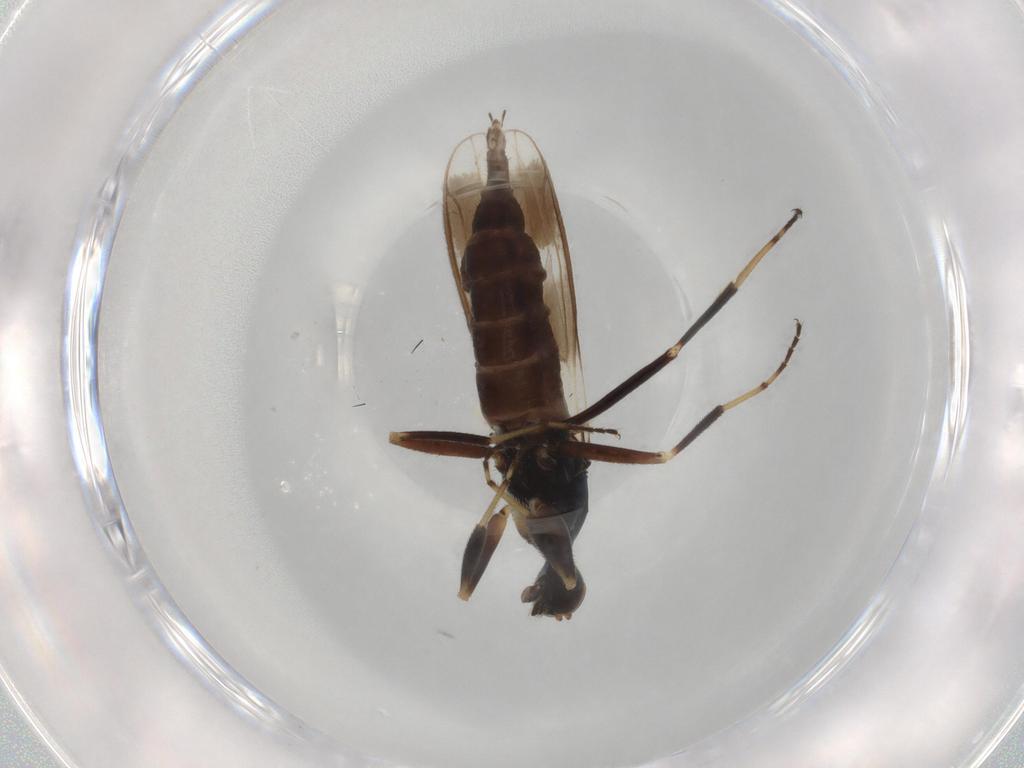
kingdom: Animalia
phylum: Arthropoda
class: Insecta
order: Diptera
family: Hybotidae
